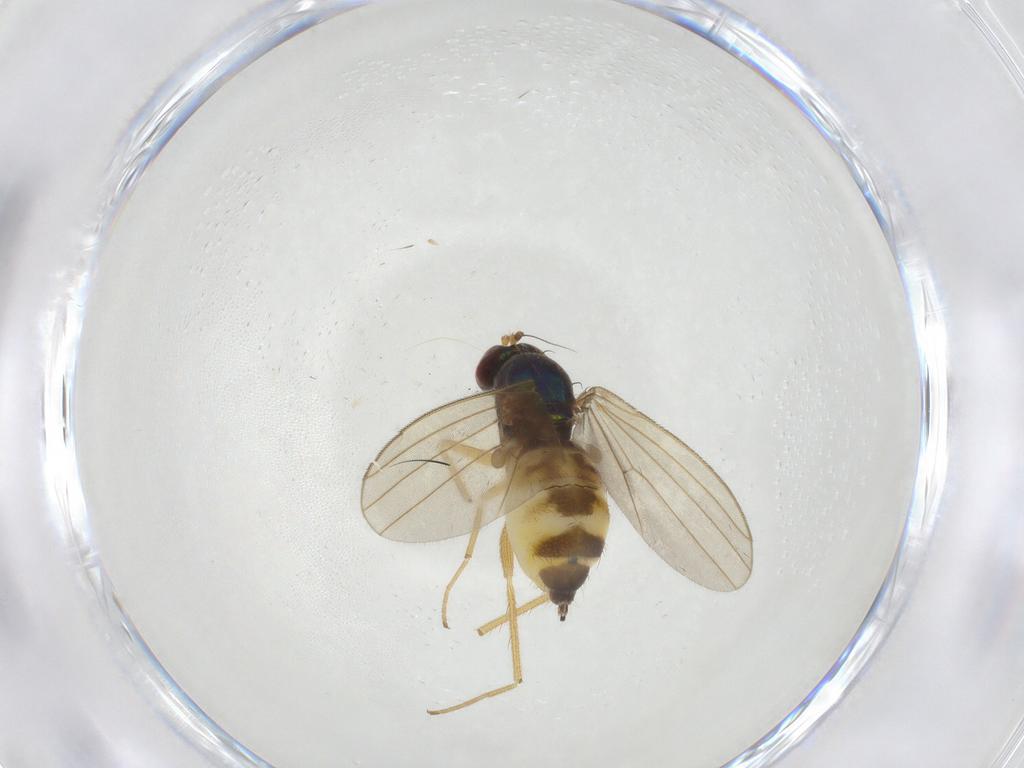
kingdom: Animalia
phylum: Arthropoda
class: Insecta
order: Diptera
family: Dolichopodidae
